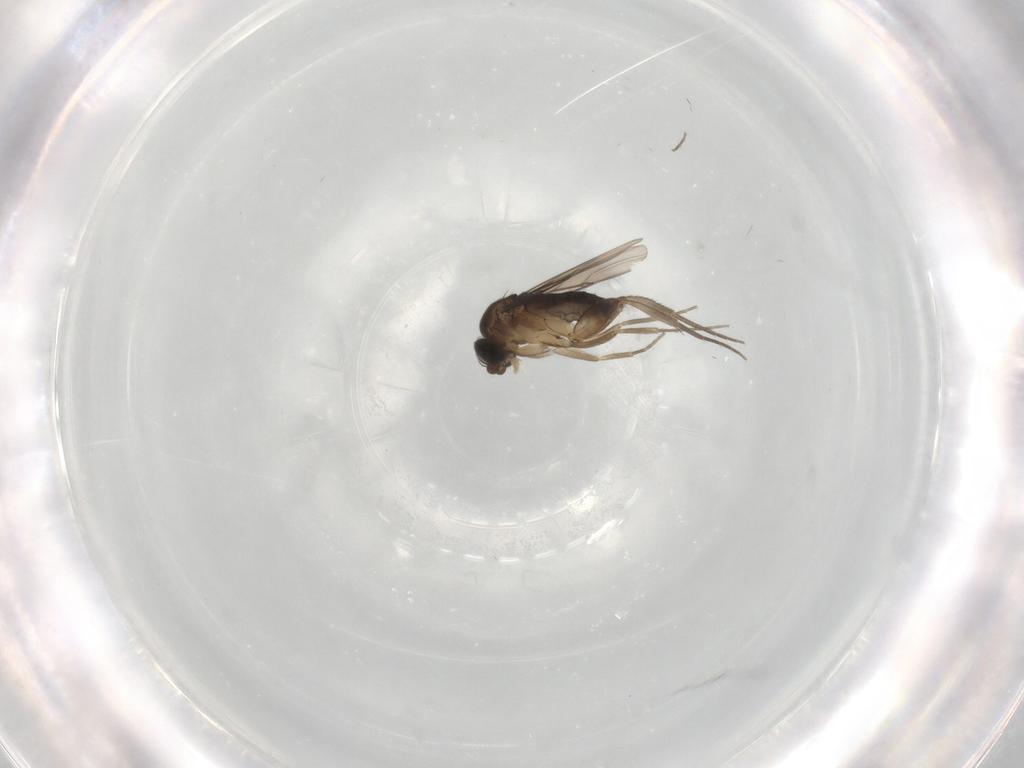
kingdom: Animalia
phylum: Arthropoda
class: Insecta
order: Diptera
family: Phoridae
